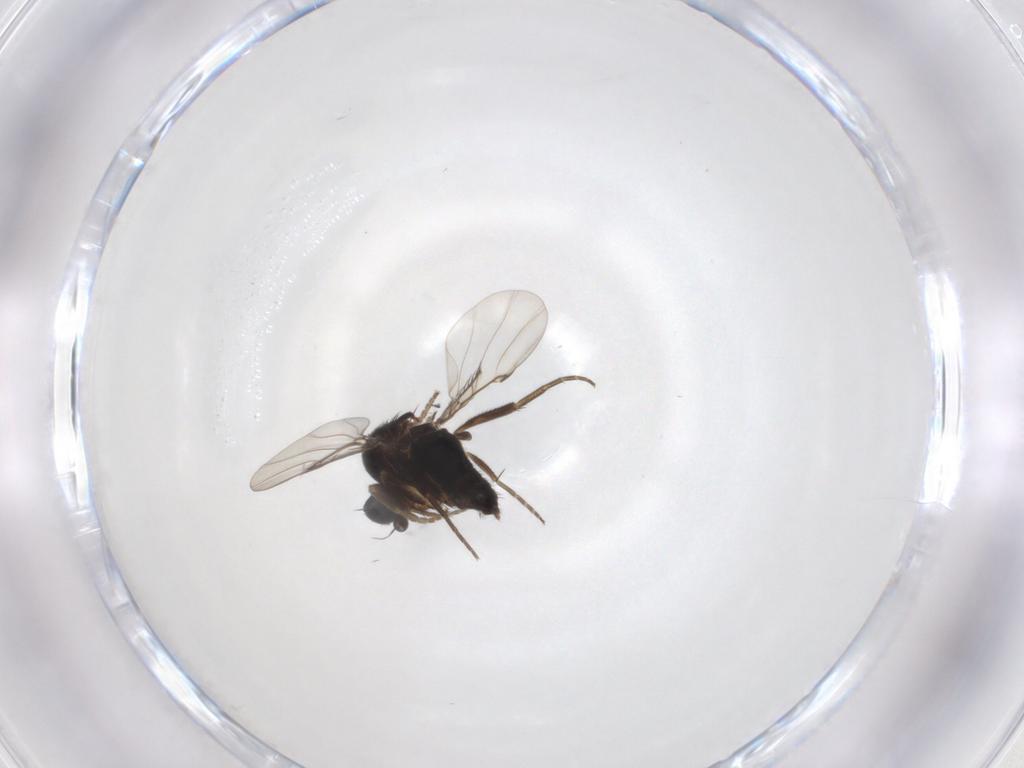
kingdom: Animalia
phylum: Arthropoda
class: Insecta
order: Diptera
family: Phoridae
